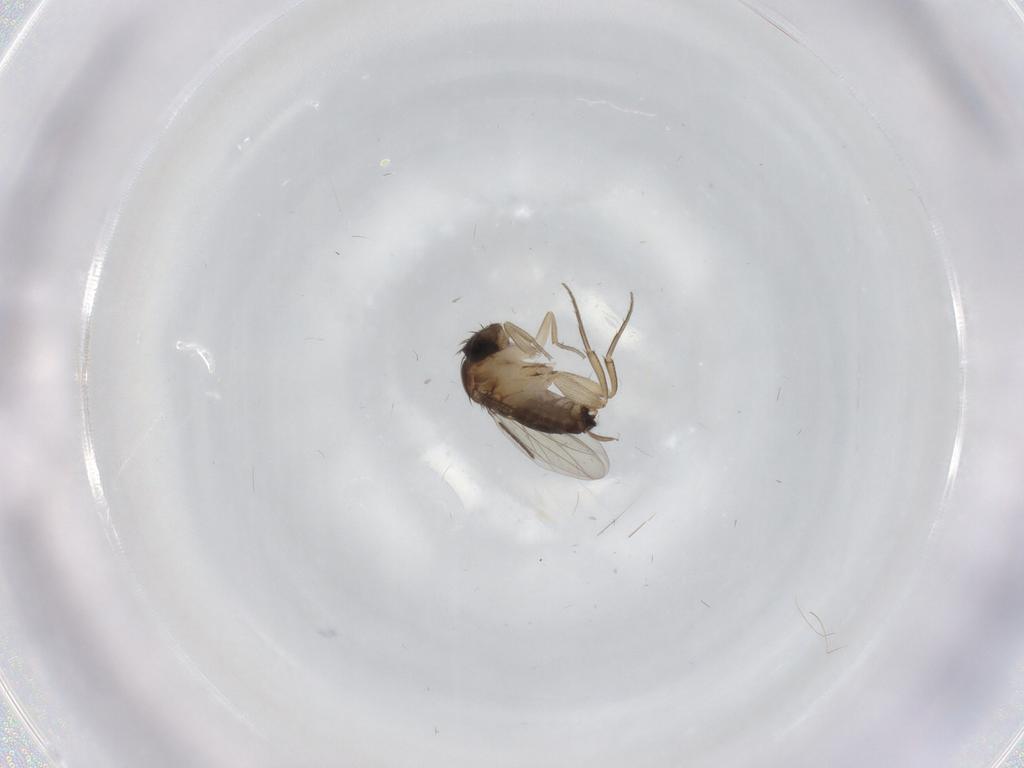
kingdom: Animalia
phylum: Arthropoda
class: Insecta
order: Diptera
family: Sciaridae
